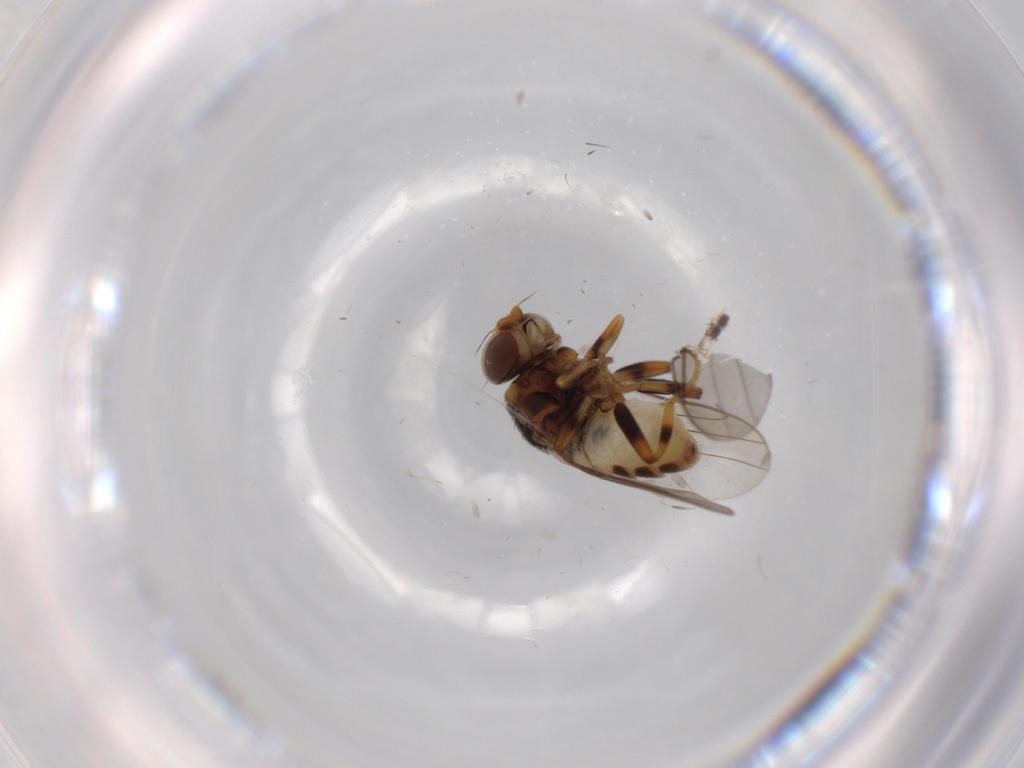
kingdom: Animalia
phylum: Arthropoda
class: Insecta
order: Diptera
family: Chloropidae
